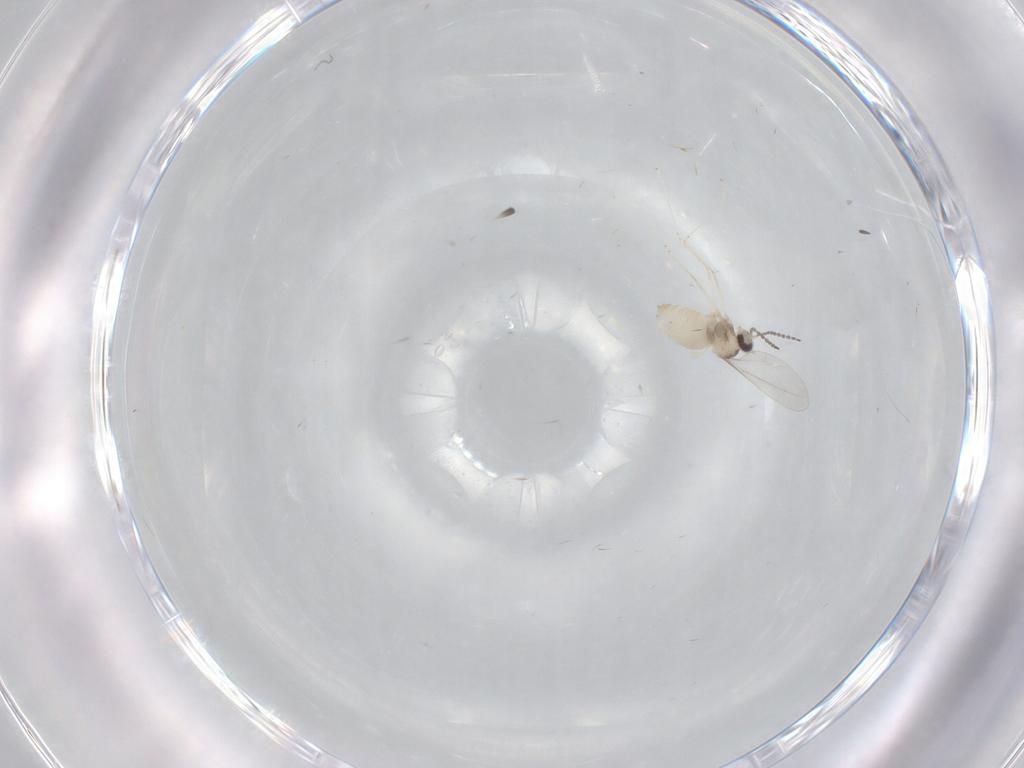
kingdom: Animalia
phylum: Arthropoda
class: Insecta
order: Diptera
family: Cecidomyiidae
